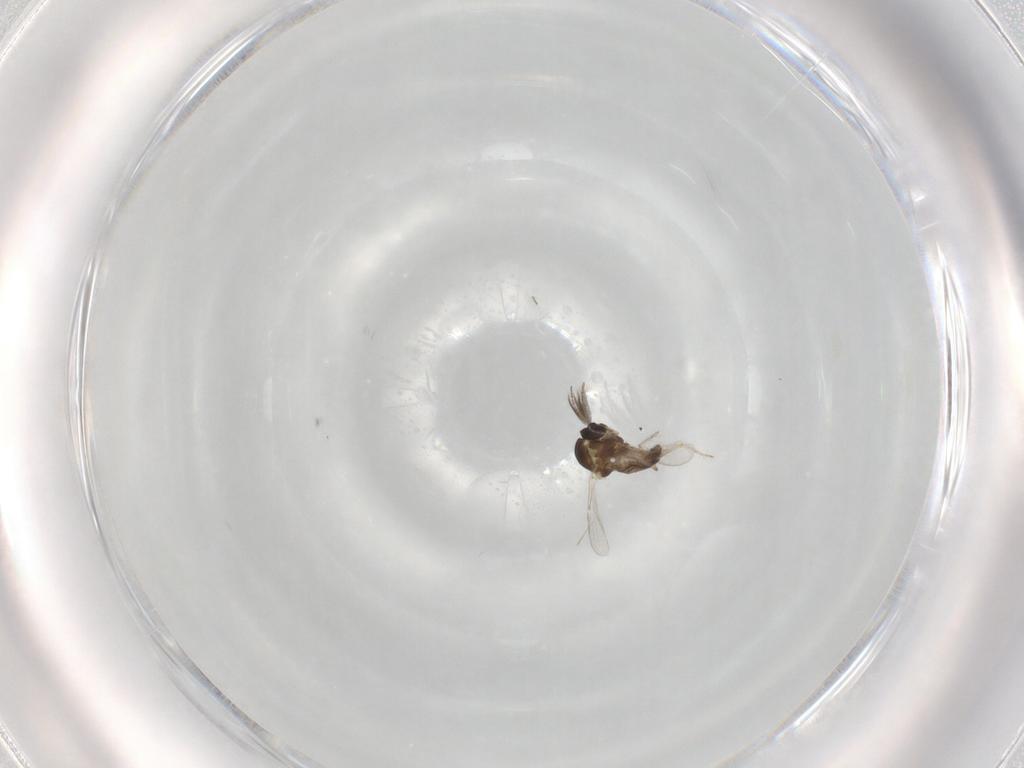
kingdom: Animalia
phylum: Arthropoda
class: Insecta
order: Diptera
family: Ceratopogonidae
